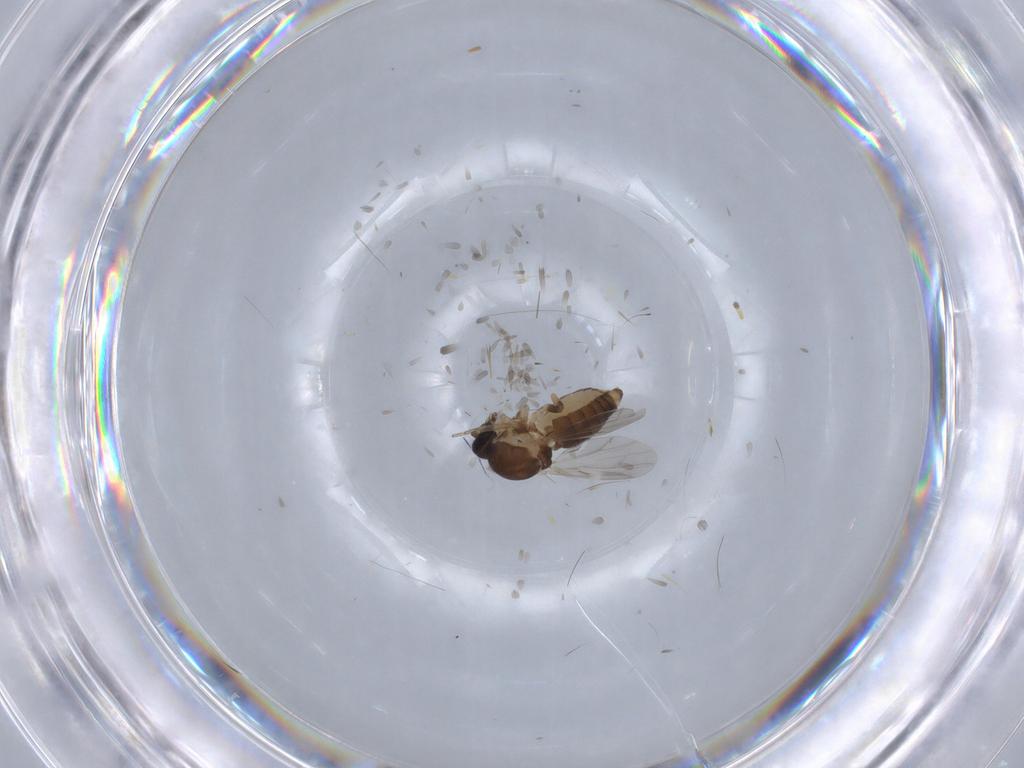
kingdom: Animalia
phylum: Arthropoda
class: Insecta
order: Diptera
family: Ceratopogonidae
